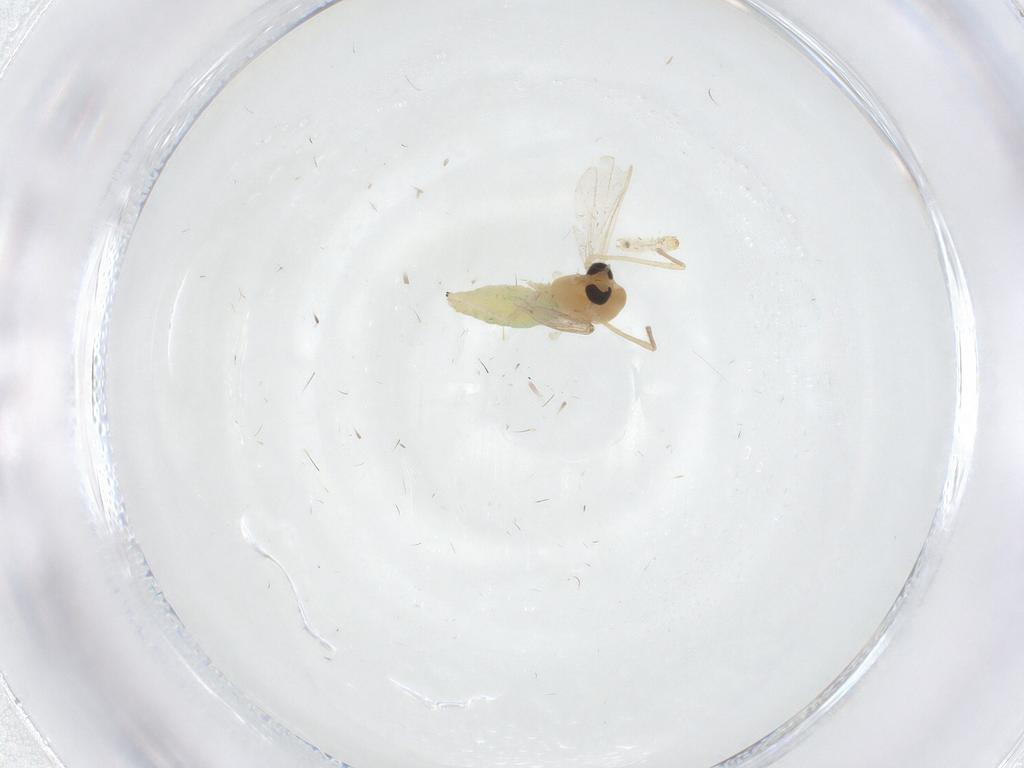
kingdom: Animalia
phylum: Arthropoda
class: Insecta
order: Diptera
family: Chironomidae
